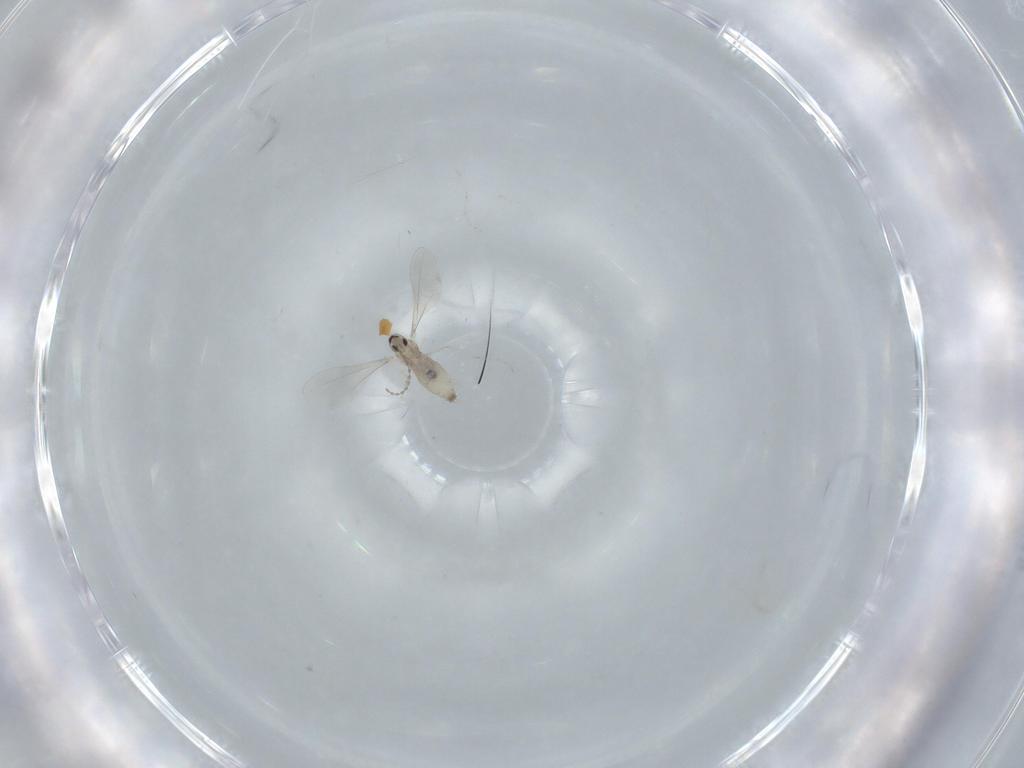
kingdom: Animalia
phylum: Arthropoda
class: Insecta
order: Diptera
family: Cecidomyiidae
